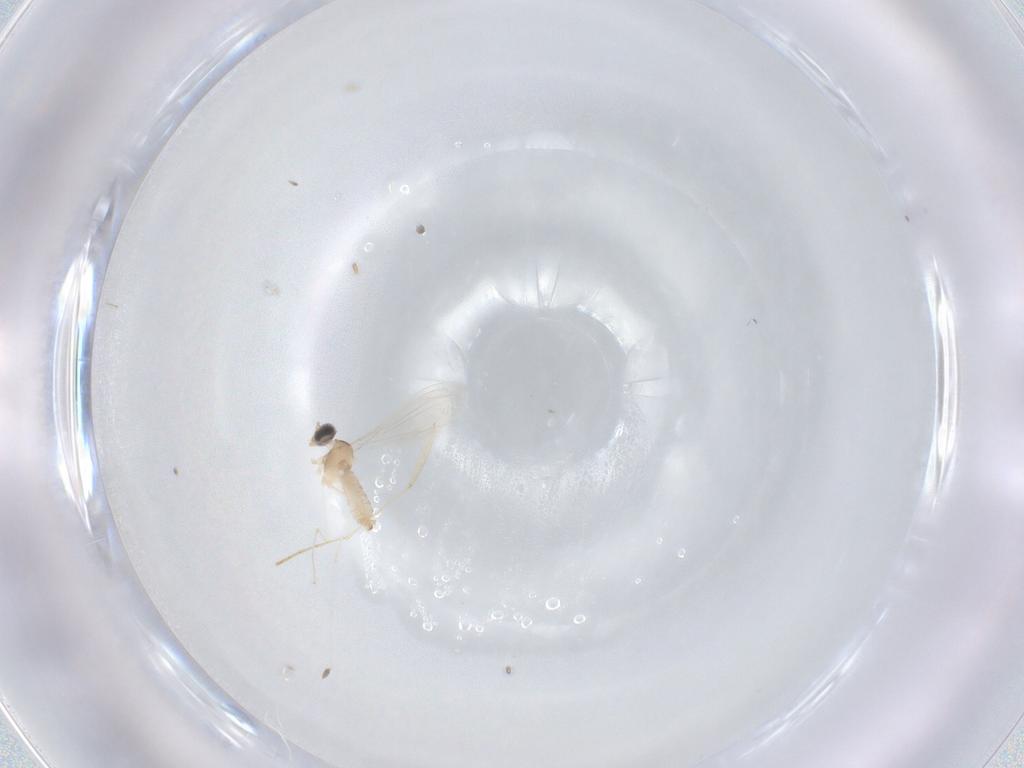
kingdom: Animalia
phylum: Arthropoda
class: Insecta
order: Diptera
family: Cecidomyiidae
